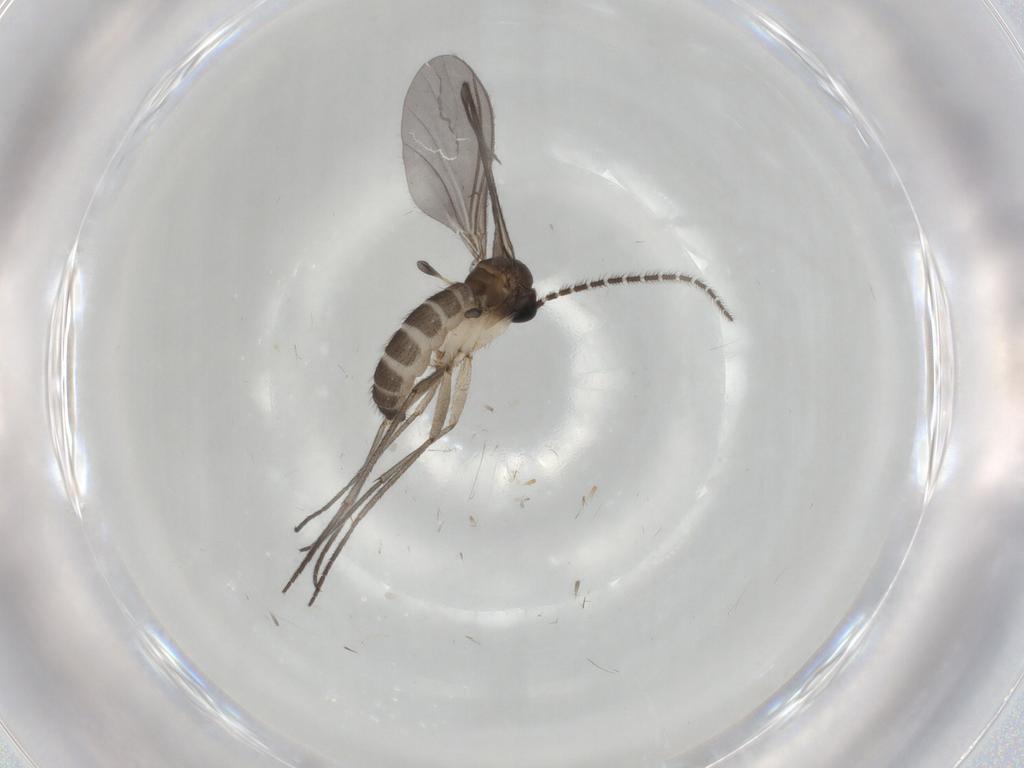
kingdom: Animalia
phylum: Arthropoda
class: Insecta
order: Diptera
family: Sciaridae
